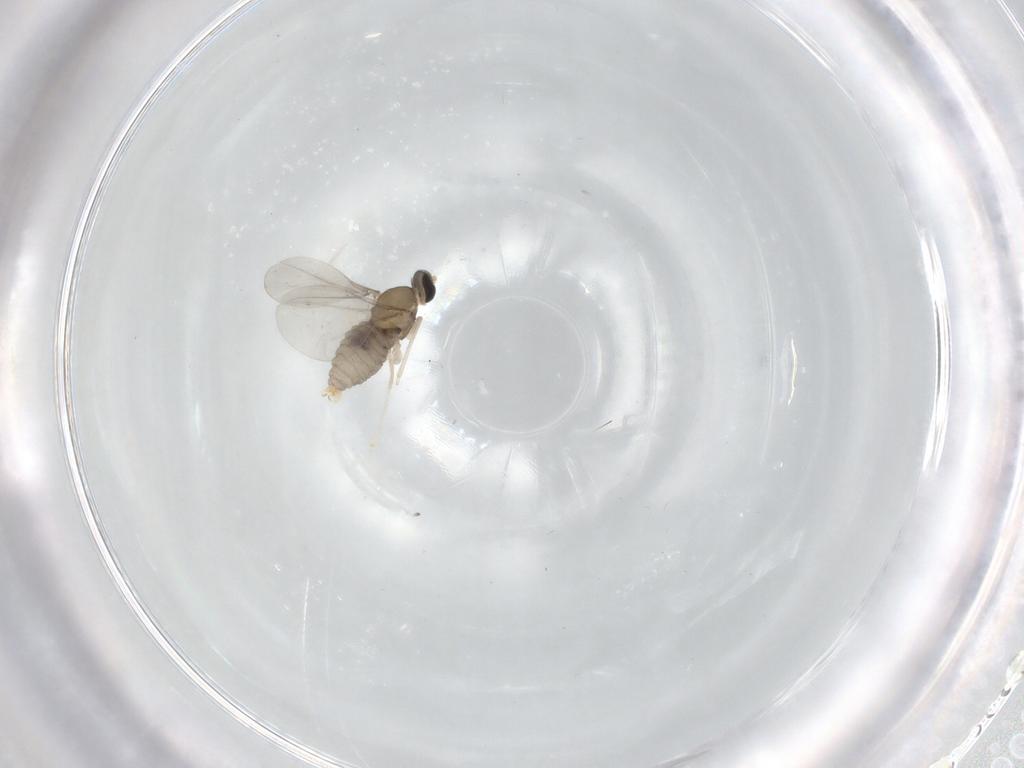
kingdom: Animalia
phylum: Arthropoda
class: Insecta
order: Diptera
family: Cecidomyiidae
